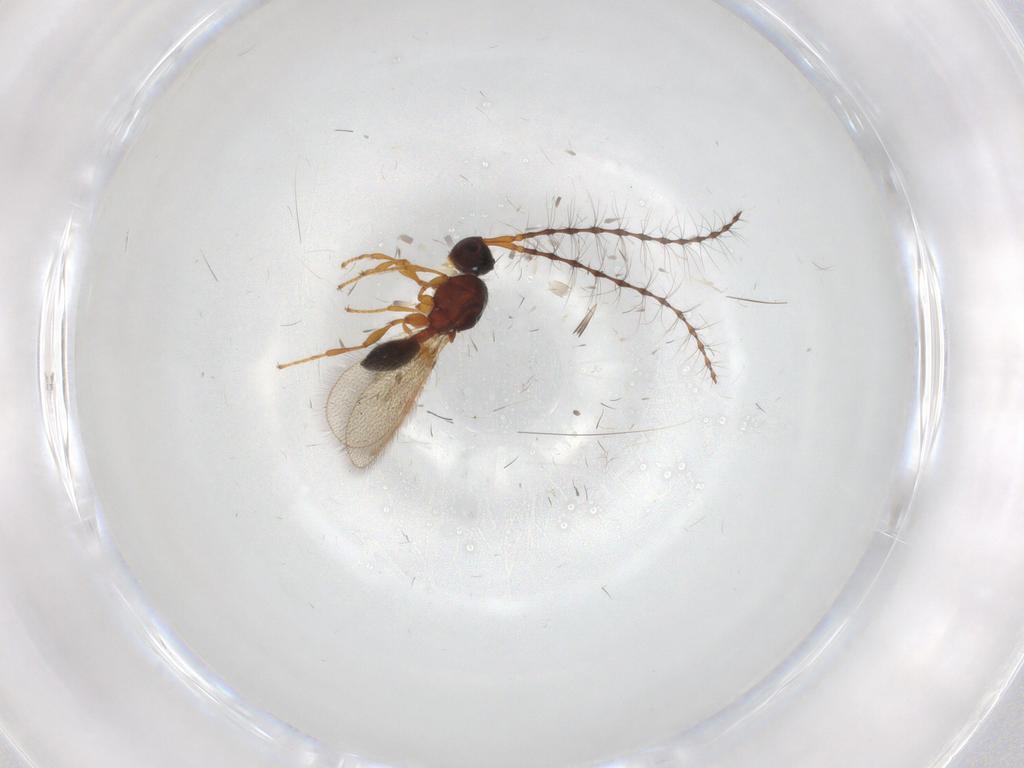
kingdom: Animalia
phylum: Arthropoda
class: Insecta
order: Hymenoptera
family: Diapriidae
